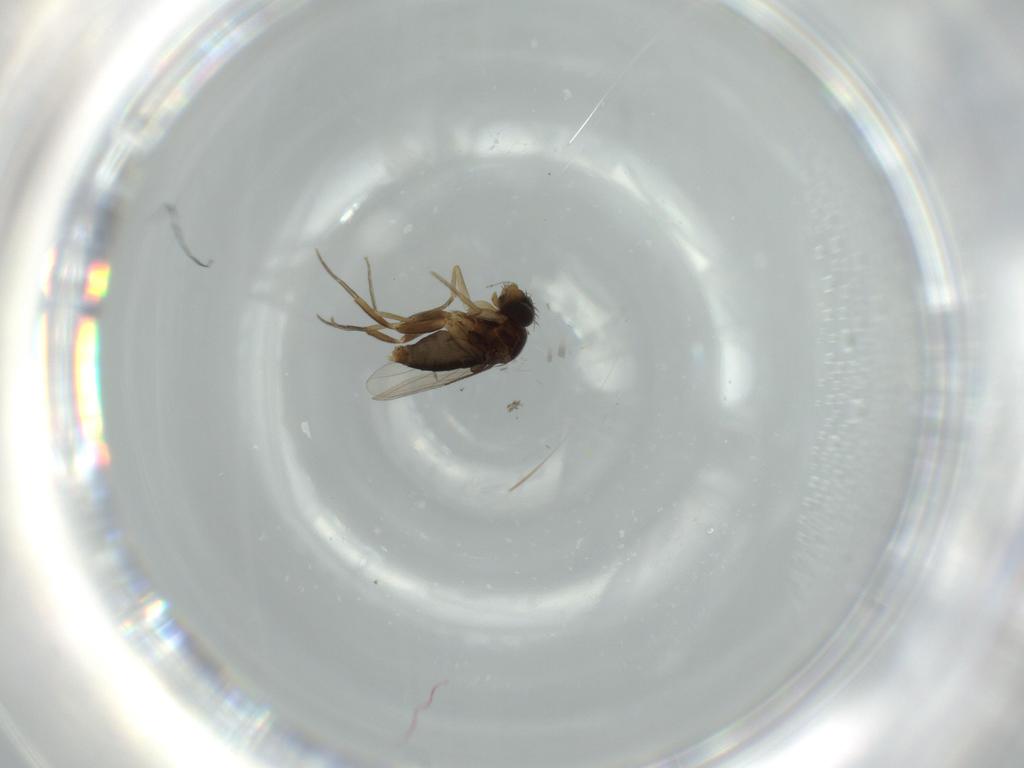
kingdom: Animalia
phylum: Arthropoda
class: Insecta
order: Diptera
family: Phoridae
